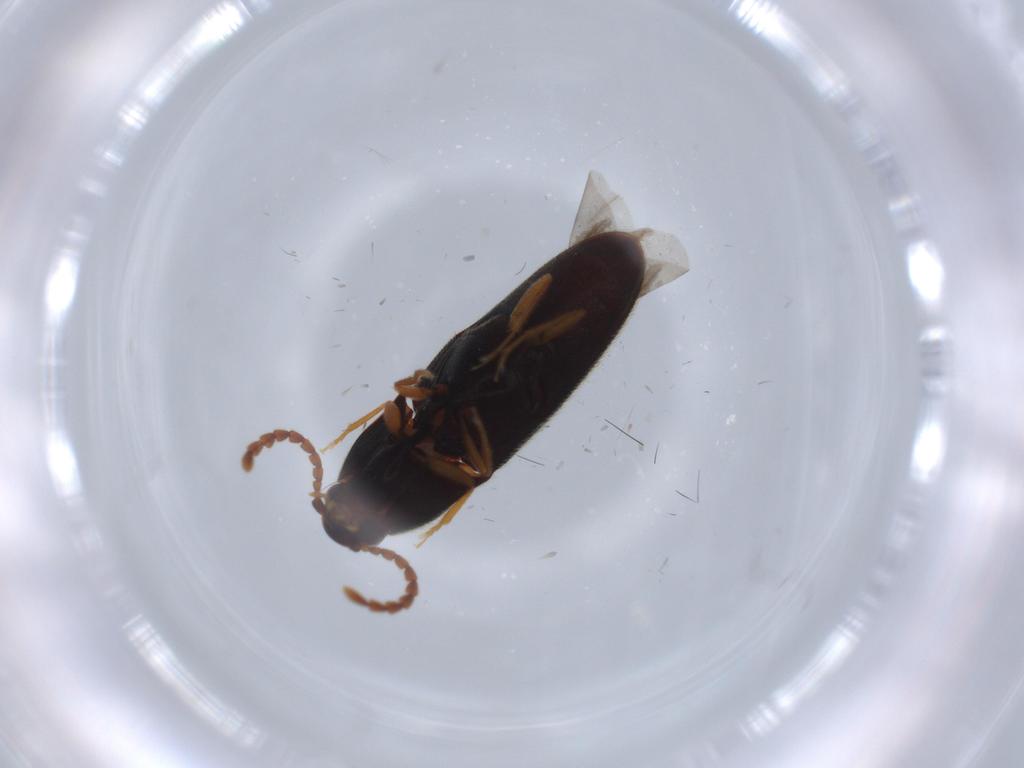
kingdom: Animalia
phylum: Arthropoda
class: Insecta
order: Coleoptera
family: Elateridae
